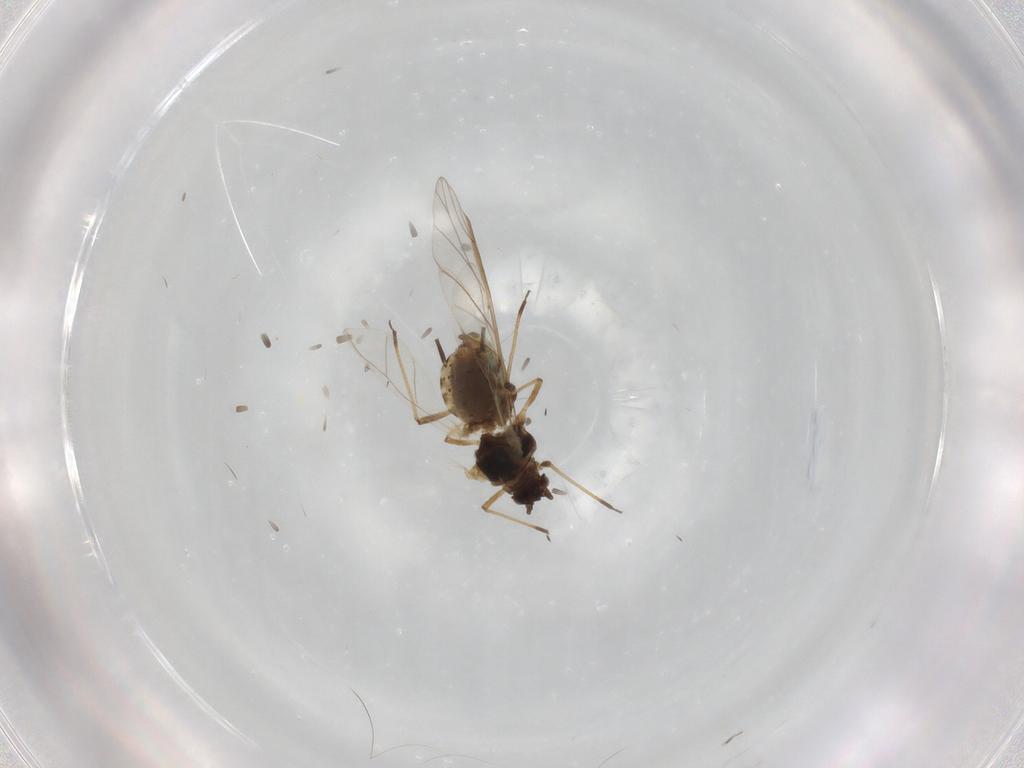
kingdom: Animalia
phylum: Arthropoda
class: Insecta
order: Hemiptera
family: Aphididae
